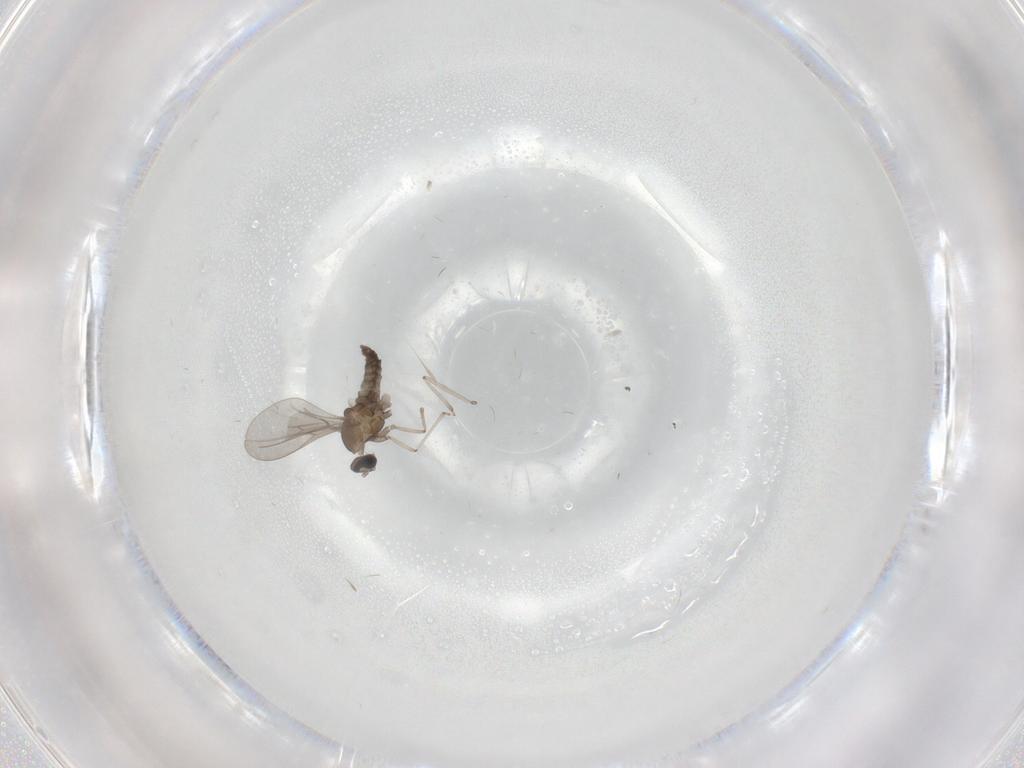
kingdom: Animalia
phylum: Arthropoda
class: Insecta
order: Diptera
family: Cecidomyiidae
